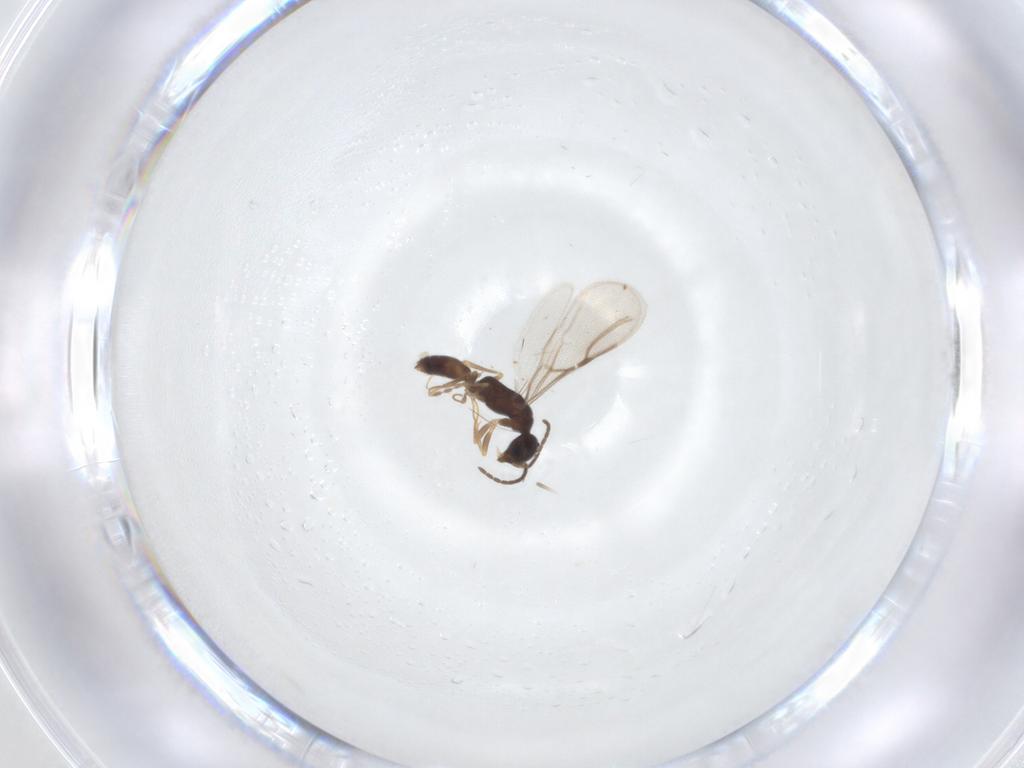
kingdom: Animalia
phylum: Arthropoda
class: Insecta
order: Hymenoptera
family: Bethylidae
